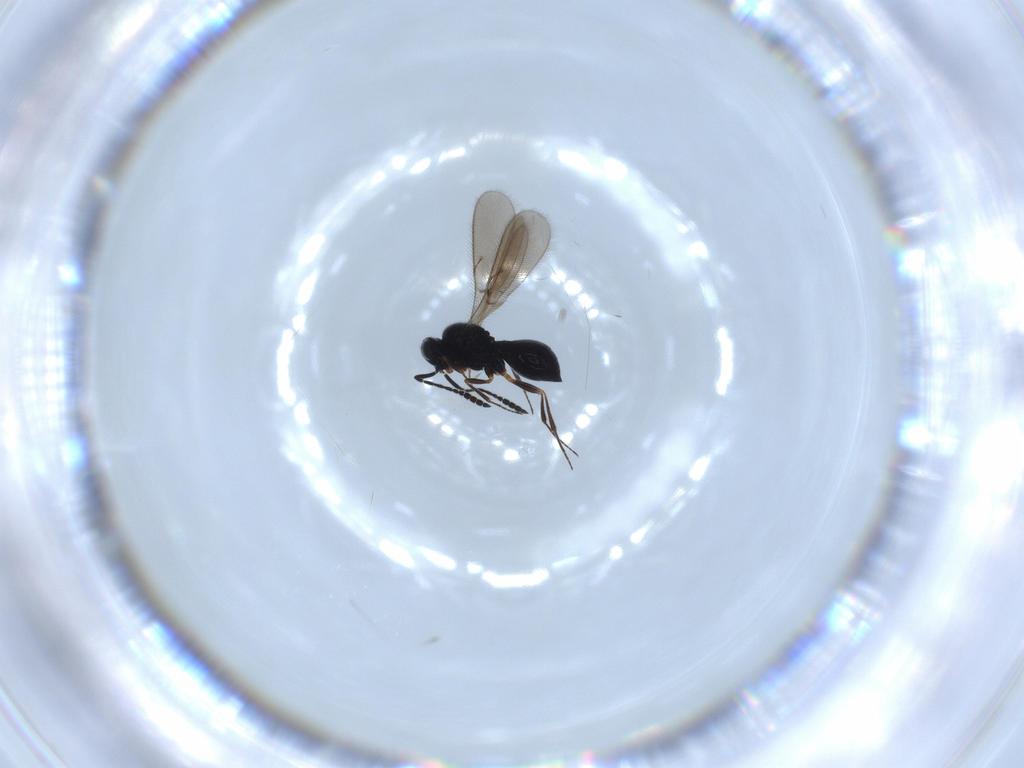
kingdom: Animalia
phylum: Arthropoda
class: Insecta
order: Hymenoptera
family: Scelionidae
